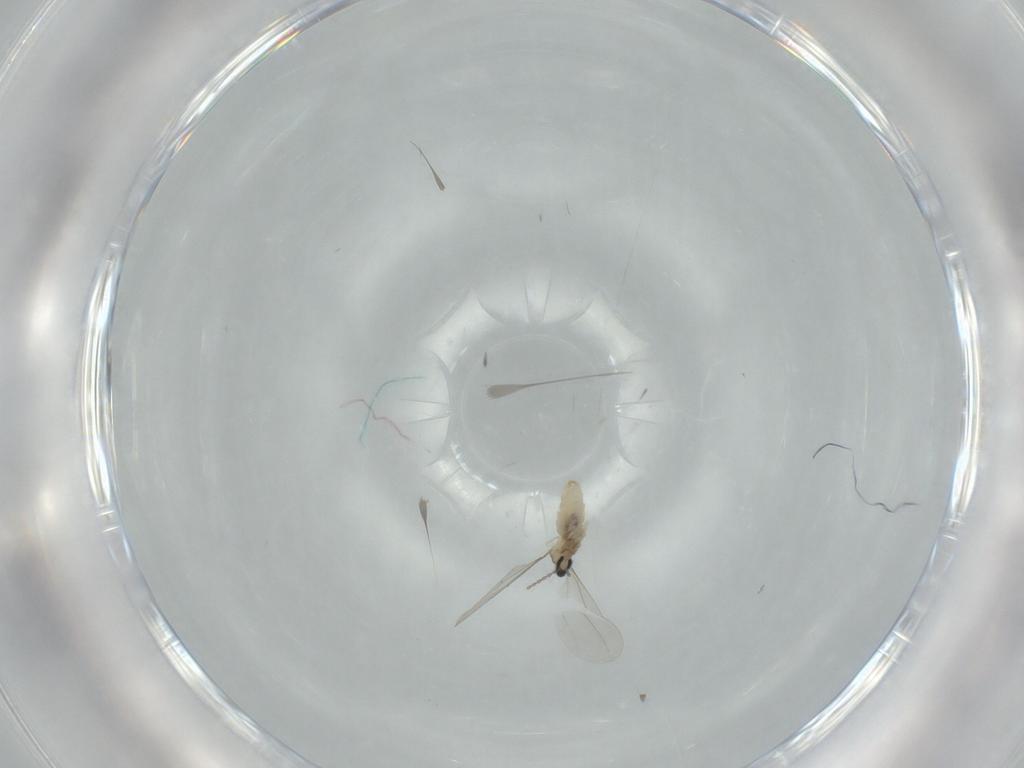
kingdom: Animalia
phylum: Arthropoda
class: Insecta
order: Diptera
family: Cecidomyiidae
